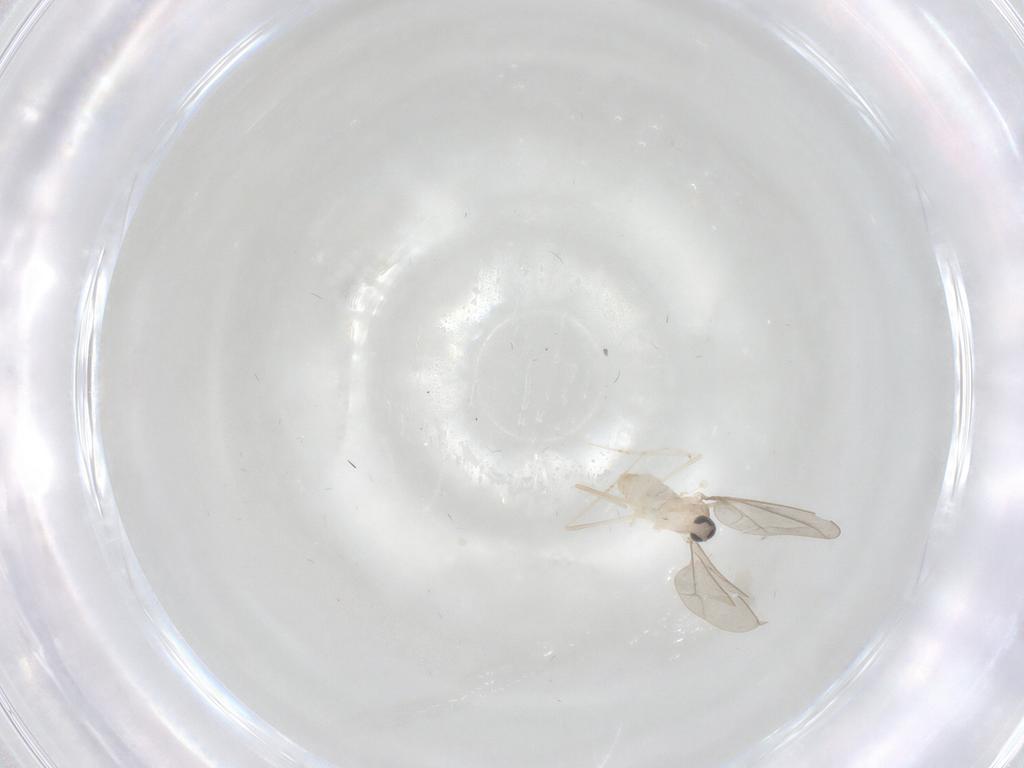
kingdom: Animalia
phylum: Arthropoda
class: Insecta
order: Diptera
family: Cecidomyiidae
